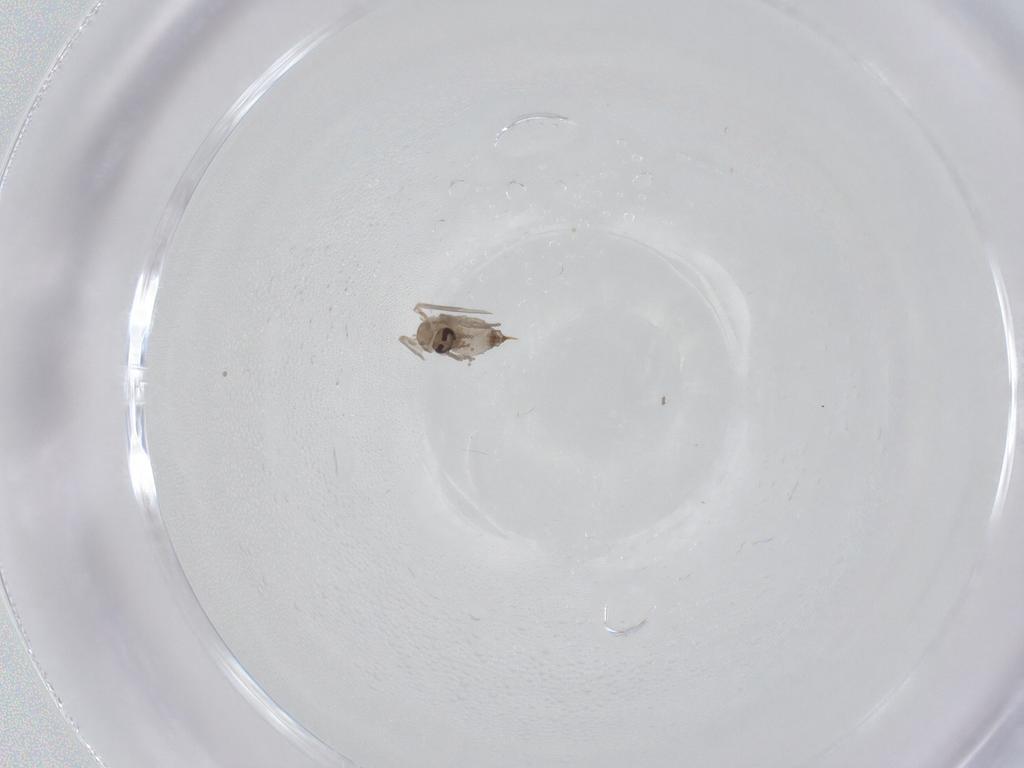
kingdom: Animalia
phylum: Arthropoda
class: Insecta
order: Diptera
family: Psychodidae
